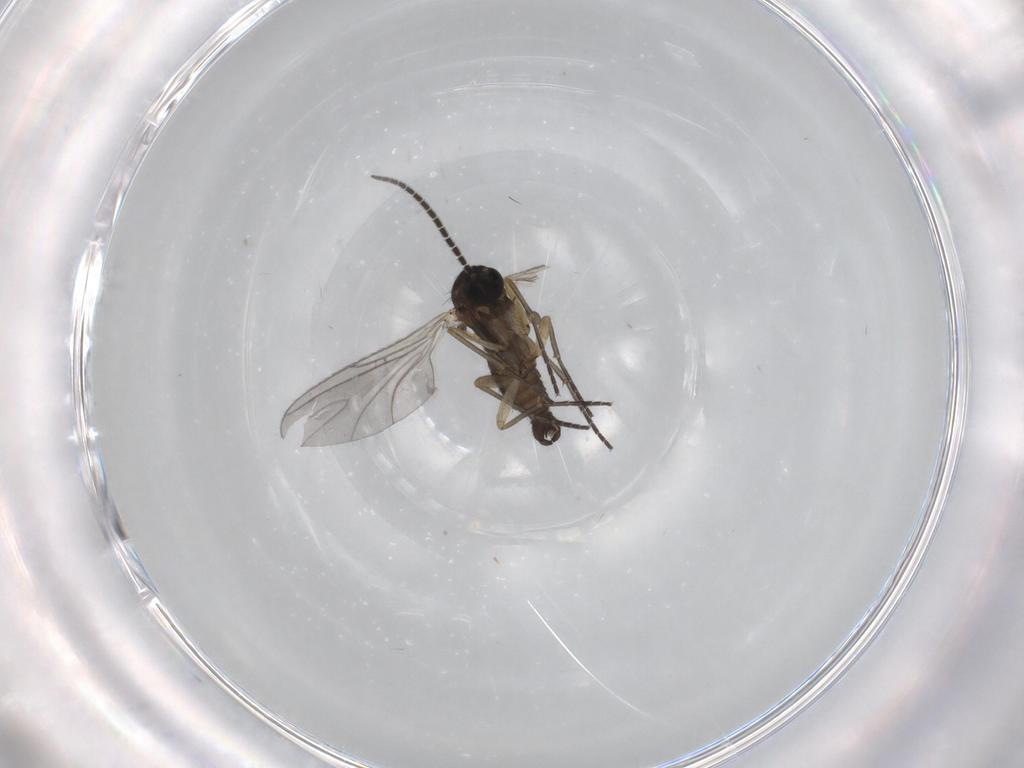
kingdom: Animalia
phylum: Arthropoda
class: Insecta
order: Diptera
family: Sciaridae
